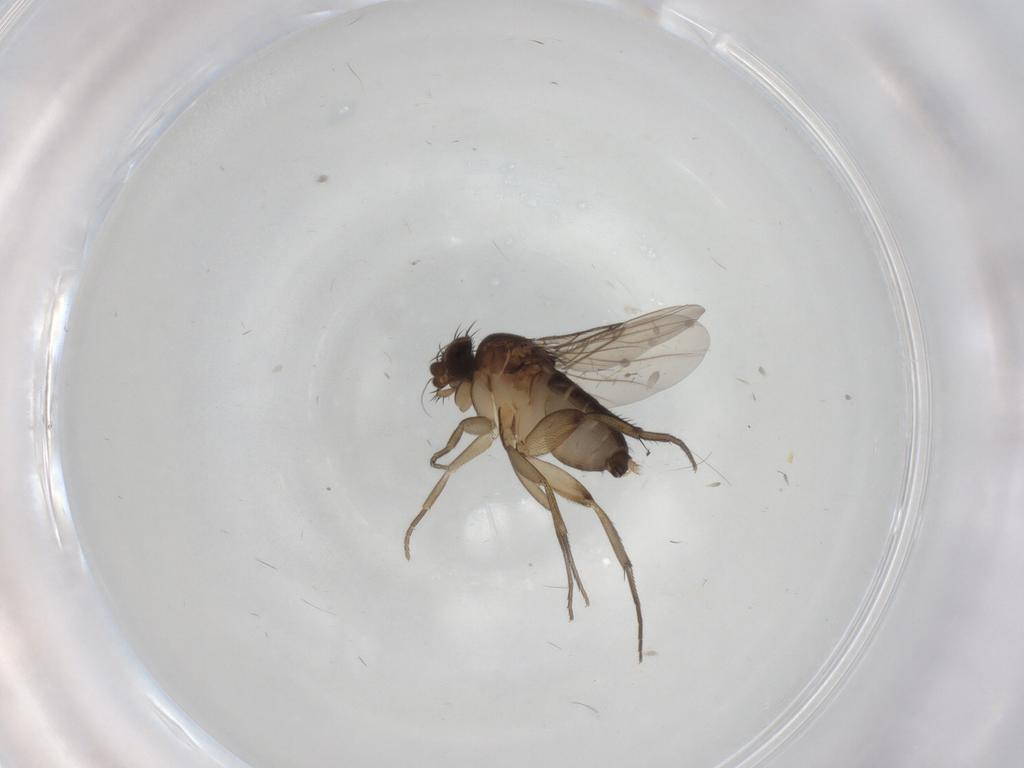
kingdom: Animalia
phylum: Arthropoda
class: Insecta
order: Diptera
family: Phoridae
